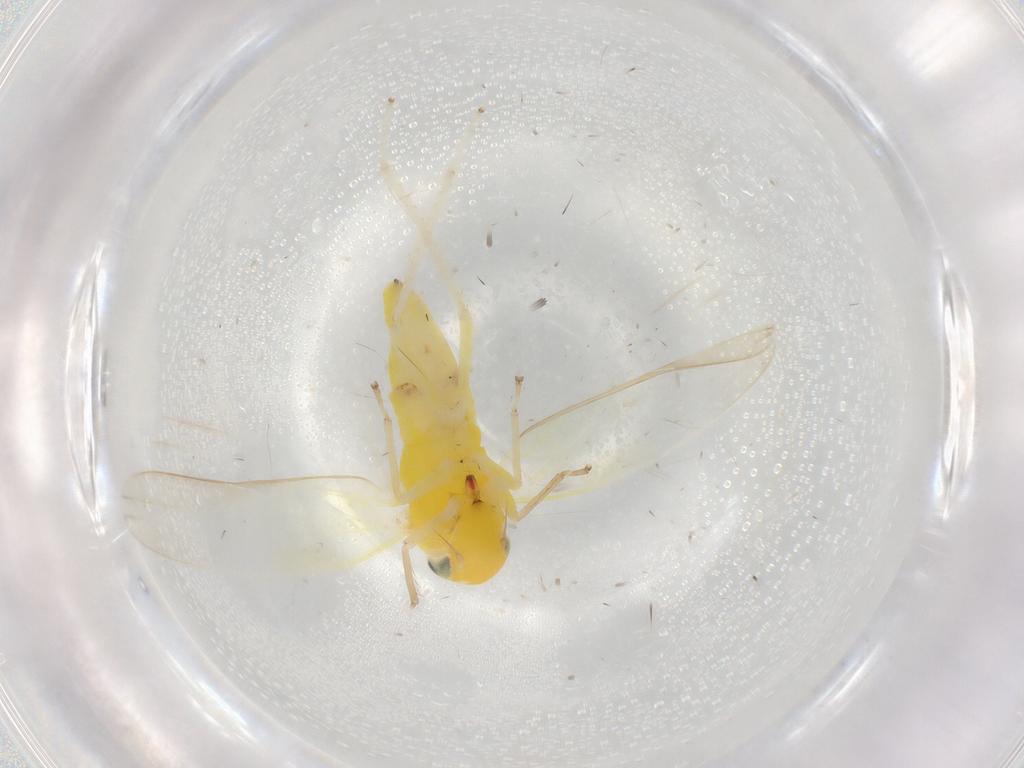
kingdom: Animalia
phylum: Arthropoda
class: Insecta
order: Hemiptera
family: Cicadellidae
